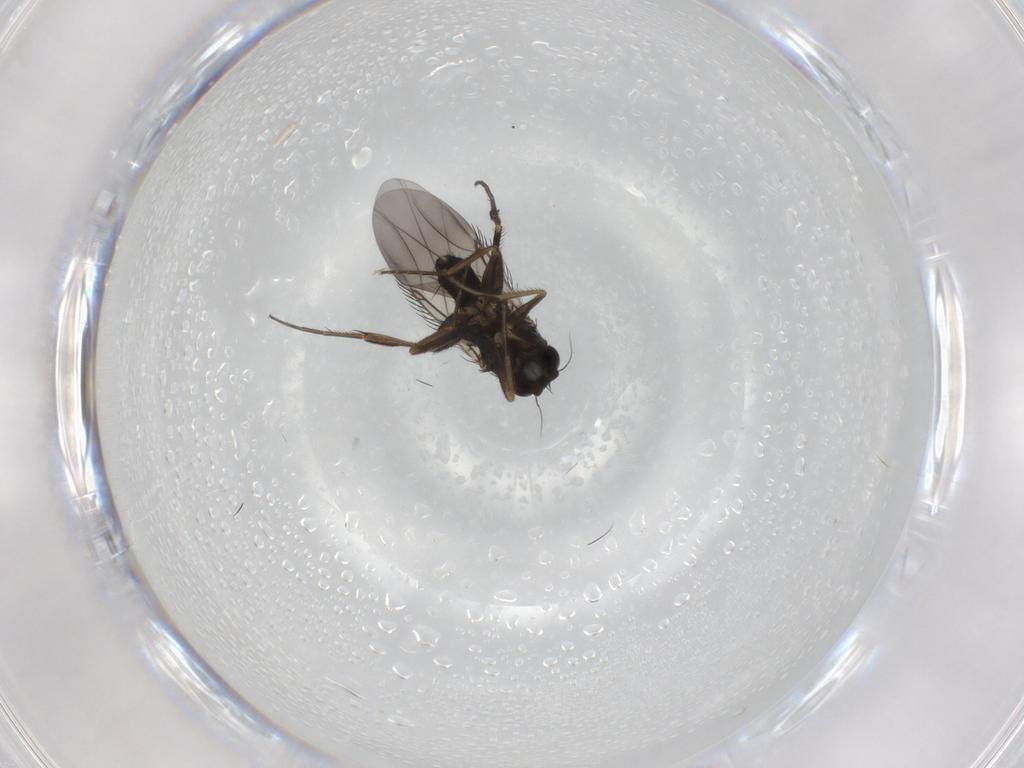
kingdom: Animalia
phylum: Arthropoda
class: Insecta
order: Diptera
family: Phoridae
